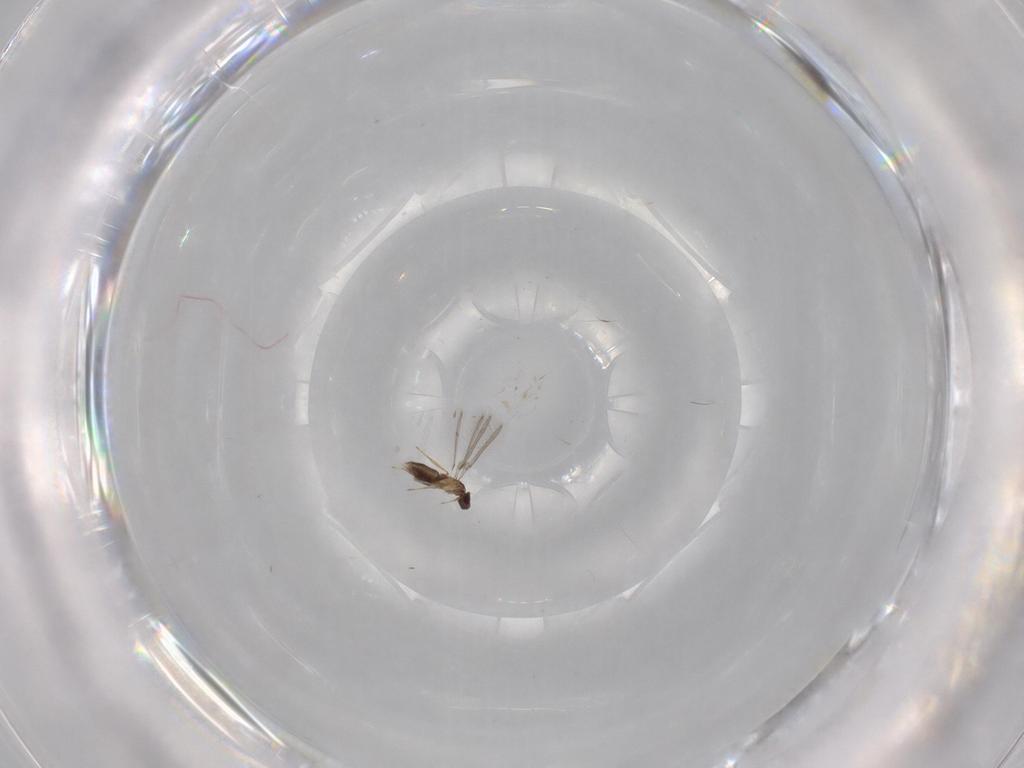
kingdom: Animalia
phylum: Arthropoda
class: Insecta
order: Hymenoptera
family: Mymaridae
